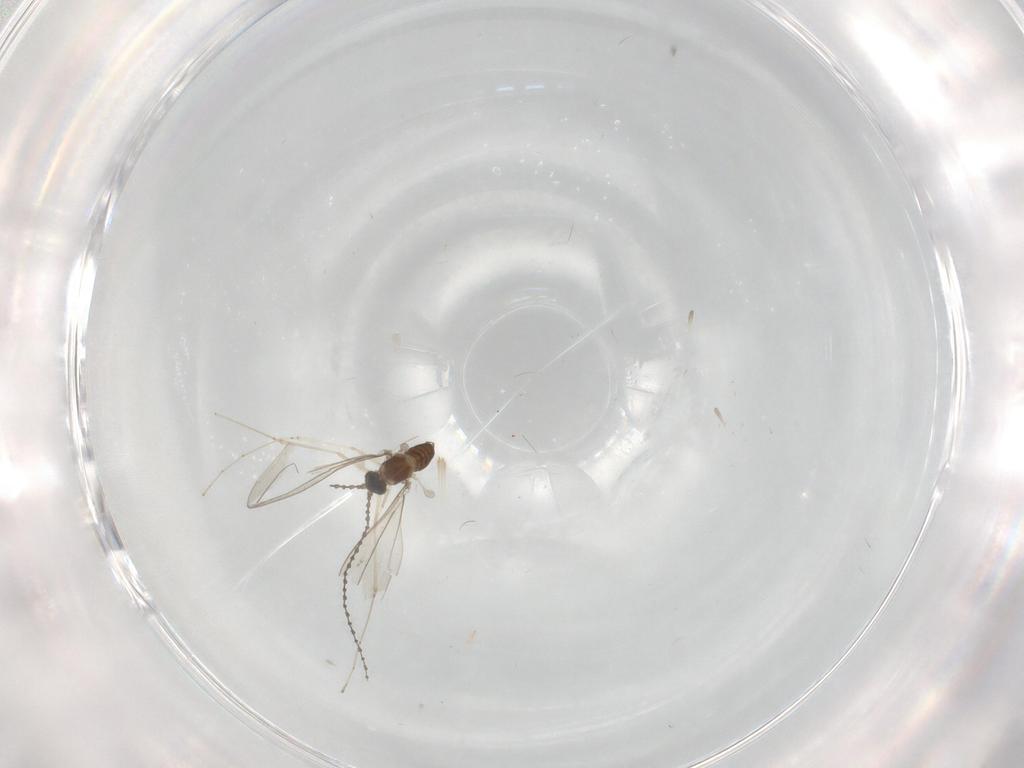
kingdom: Animalia
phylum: Arthropoda
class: Insecta
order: Diptera
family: Cecidomyiidae
